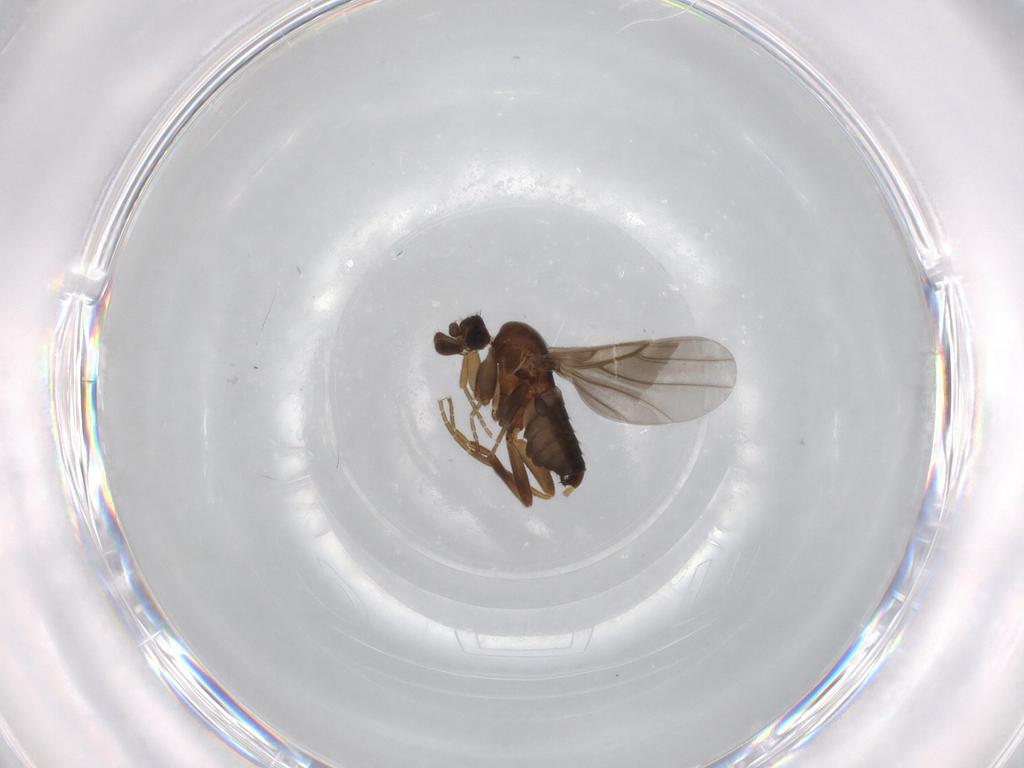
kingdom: Animalia
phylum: Arthropoda
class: Insecta
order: Diptera
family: Phoridae
